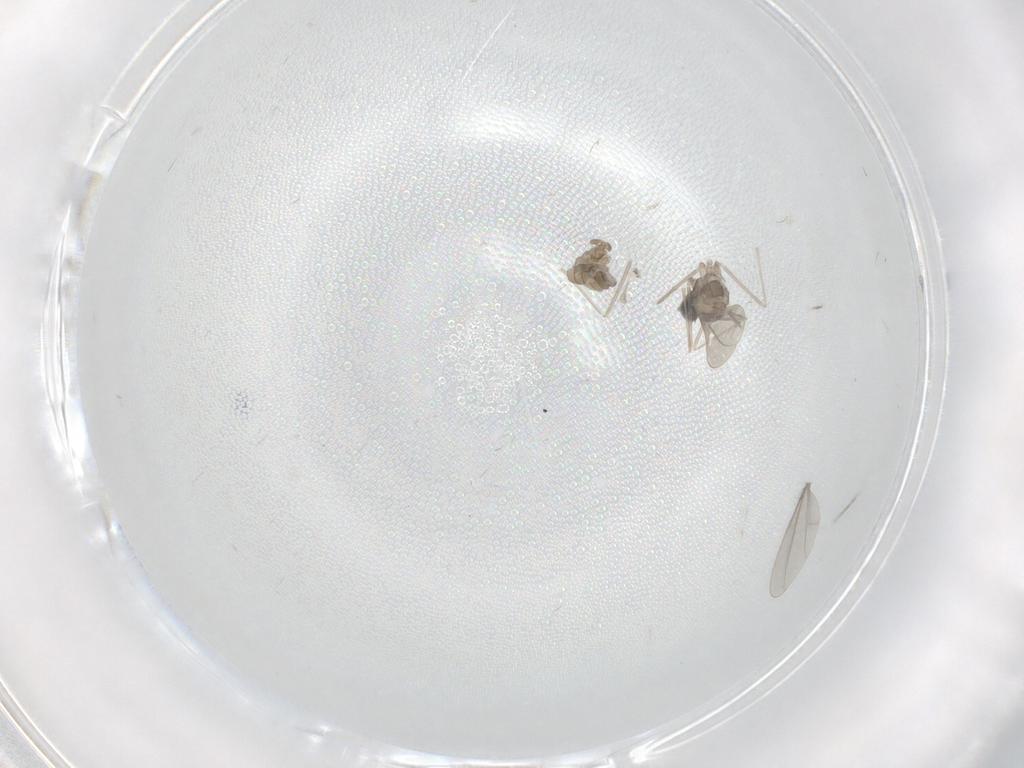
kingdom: Animalia
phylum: Arthropoda
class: Insecta
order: Diptera
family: Cecidomyiidae
